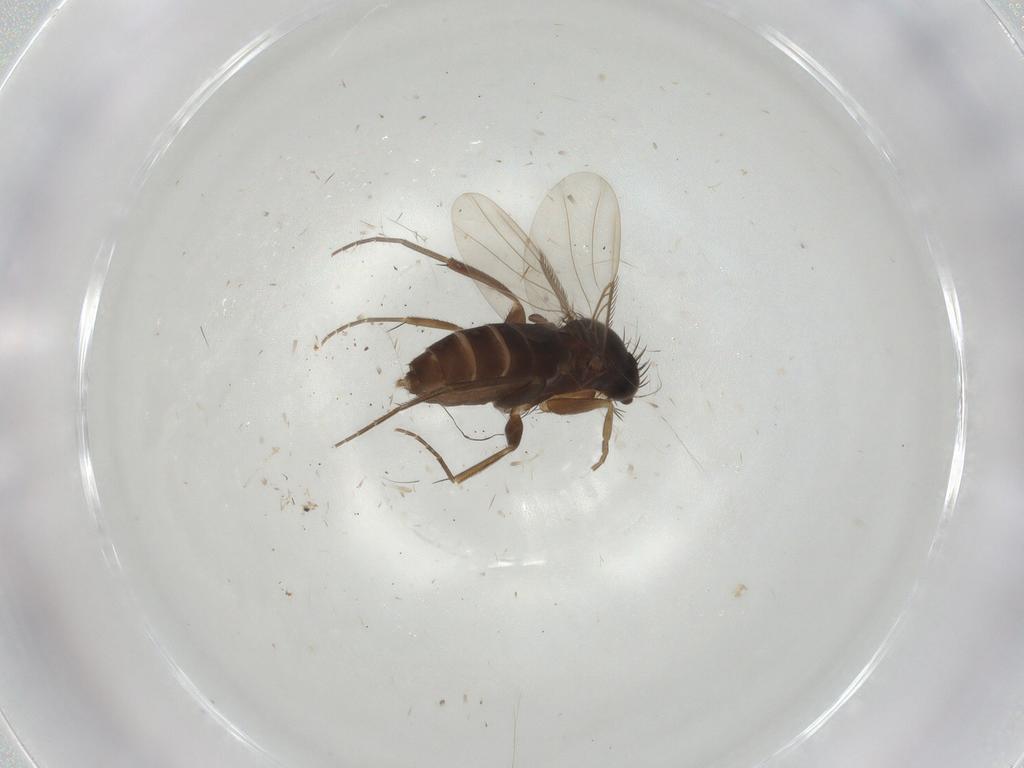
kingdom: Animalia
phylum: Arthropoda
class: Insecta
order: Diptera
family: Phoridae
